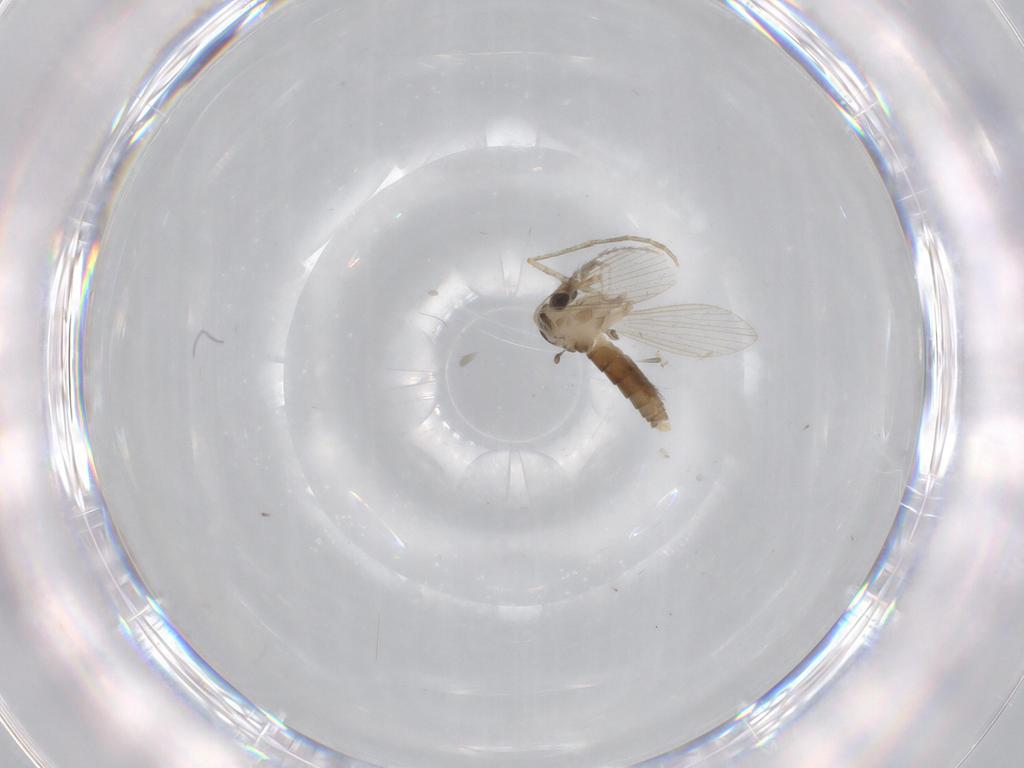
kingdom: Animalia
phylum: Arthropoda
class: Insecta
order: Diptera
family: Psychodidae
